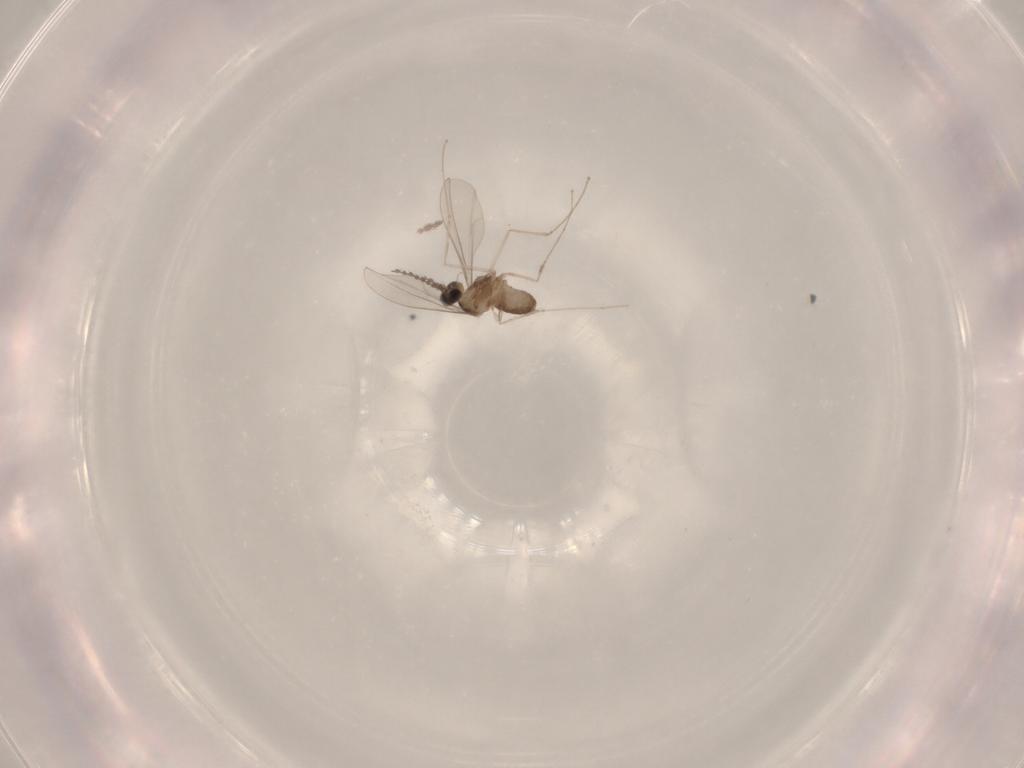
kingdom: Animalia
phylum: Arthropoda
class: Insecta
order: Diptera
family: Cecidomyiidae
